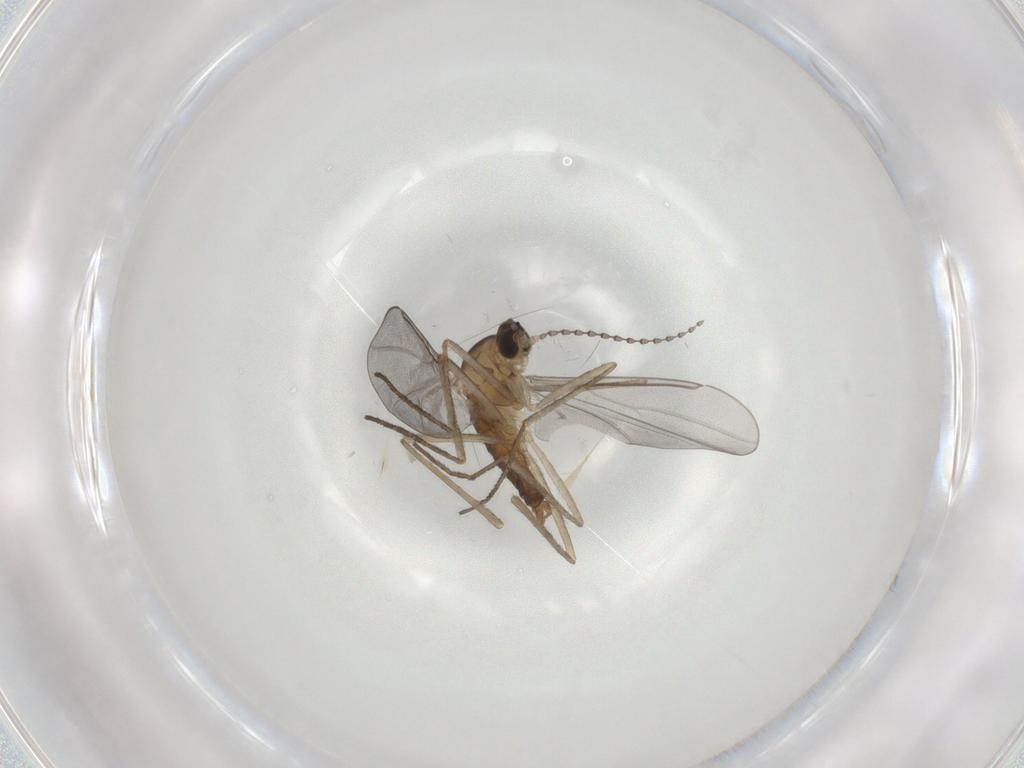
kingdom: Animalia
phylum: Arthropoda
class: Insecta
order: Diptera
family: Cecidomyiidae
